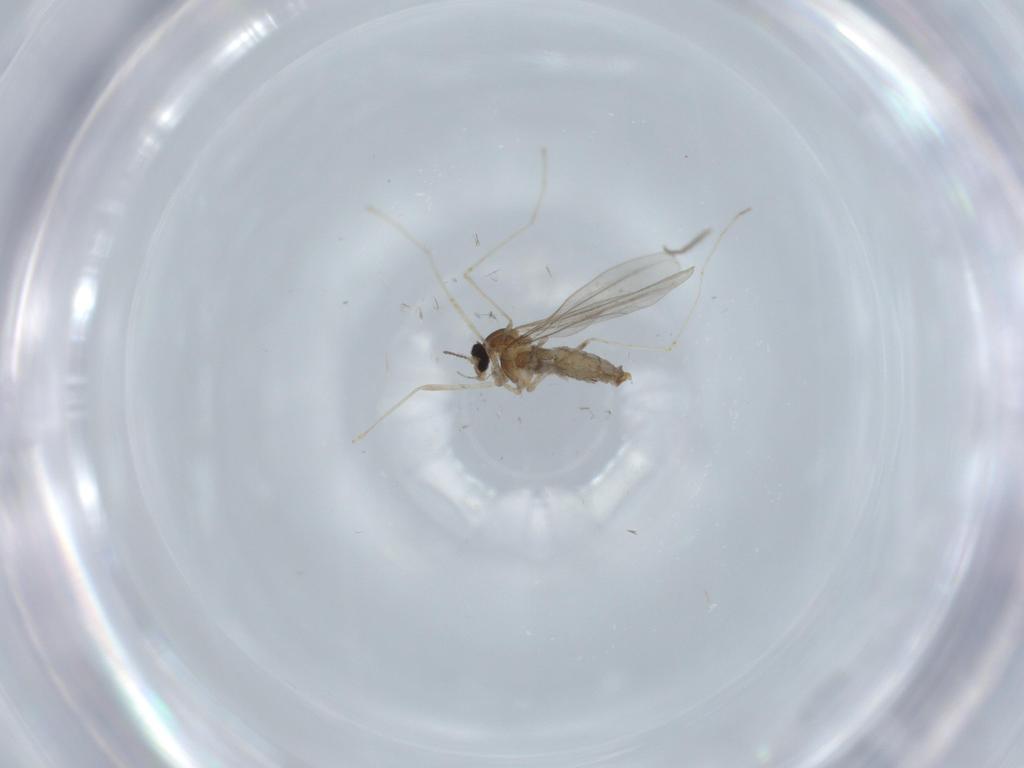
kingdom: Animalia
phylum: Arthropoda
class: Insecta
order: Diptera
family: Cecidomyiidae
